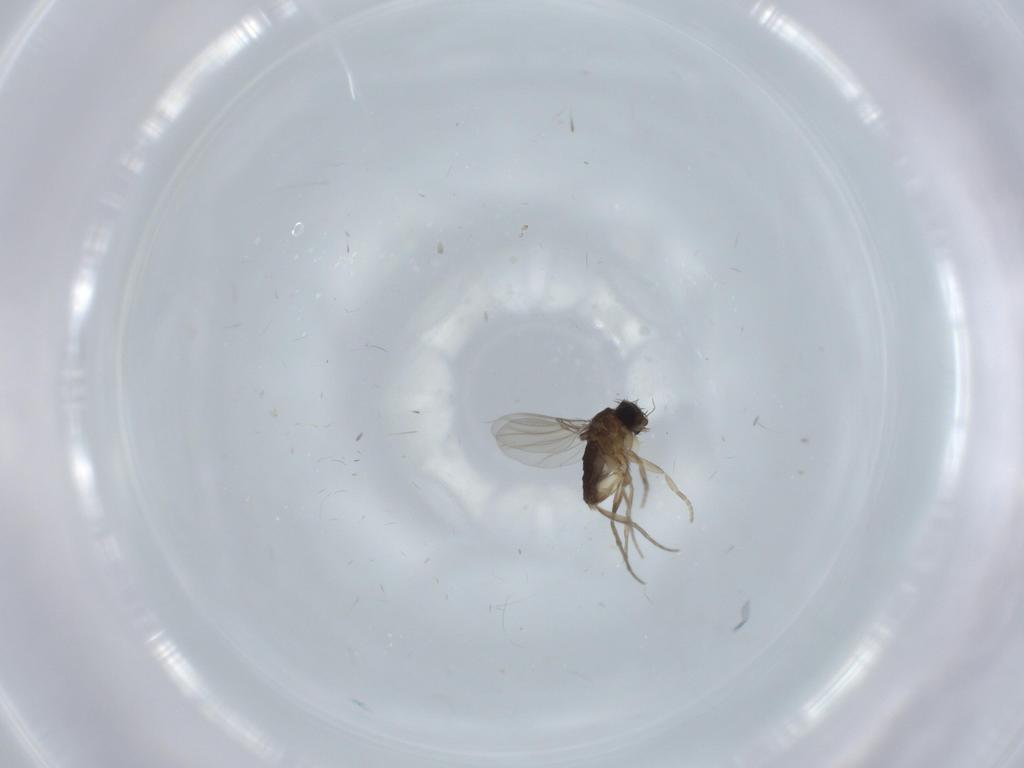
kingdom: Animalia
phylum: Arthropoda
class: Insecta
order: Diptera
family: Phoridae
